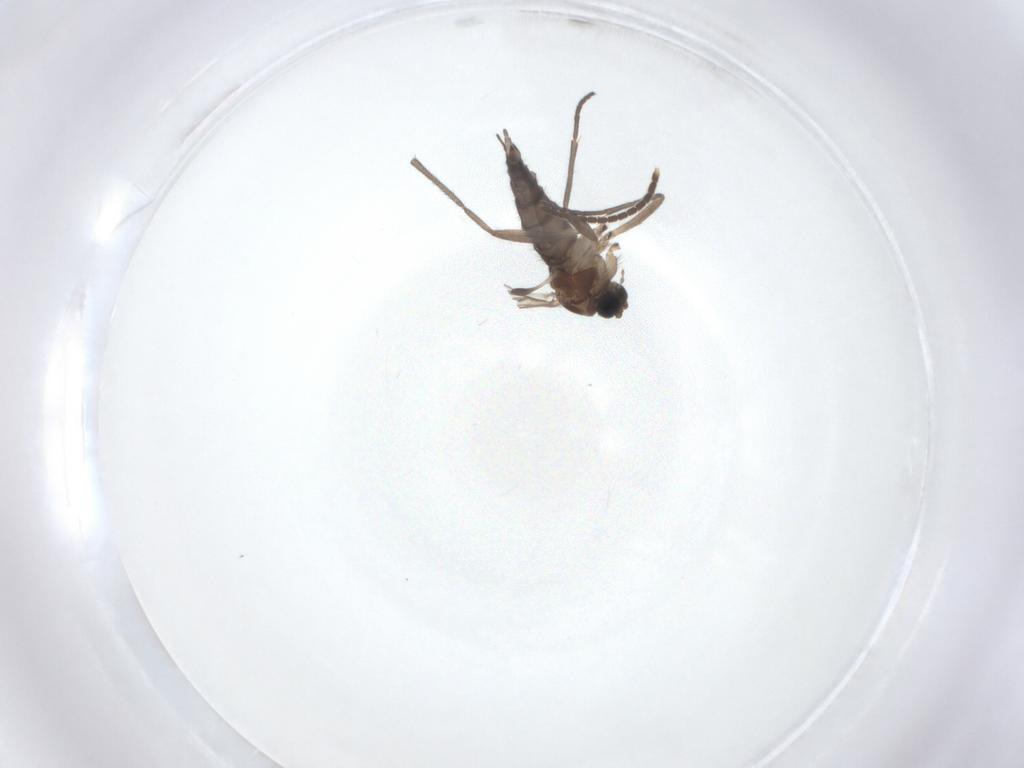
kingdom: Animalia
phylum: Arthropoda
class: Insecta
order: Diptera
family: Mycetophilidae
